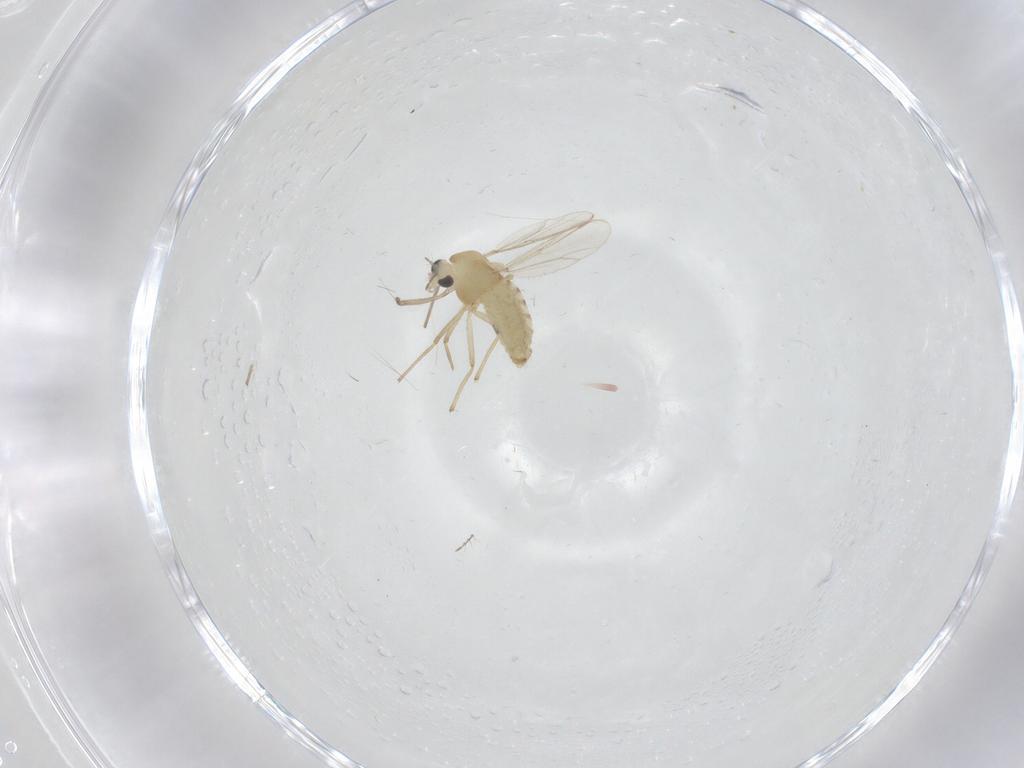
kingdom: Animalia
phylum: Arthropoda
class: Insecta
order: Diptera
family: Chironomidae
